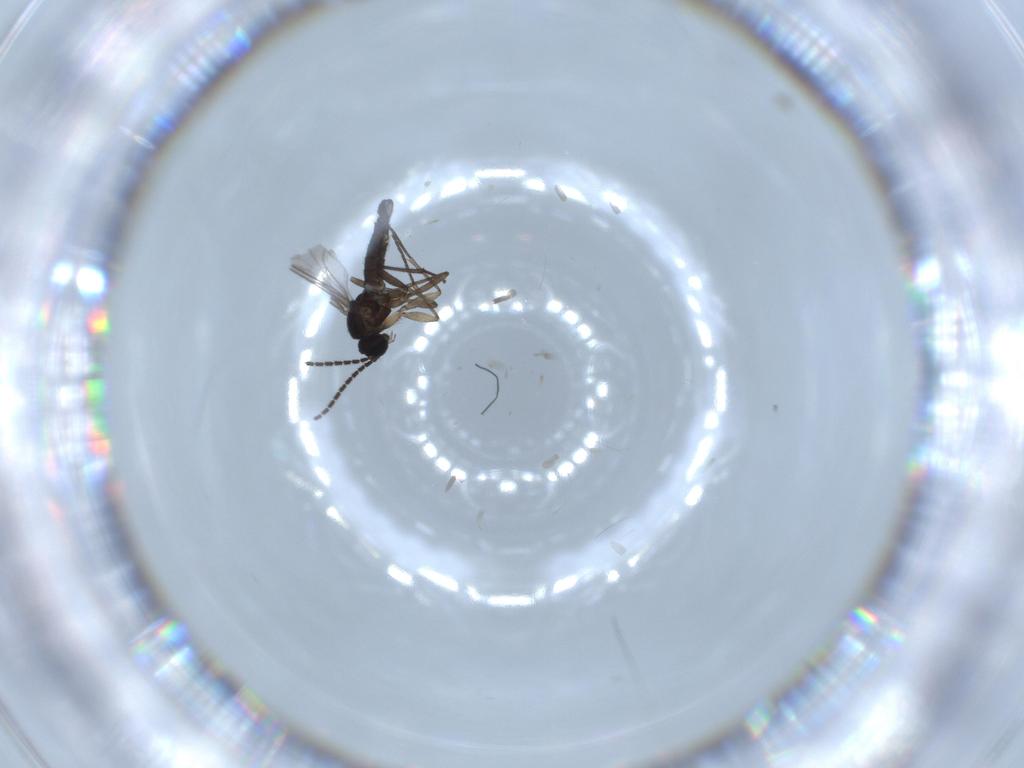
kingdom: Animalia
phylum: Arthropoda
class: Insecta
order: Diptera
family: Sciaridae
